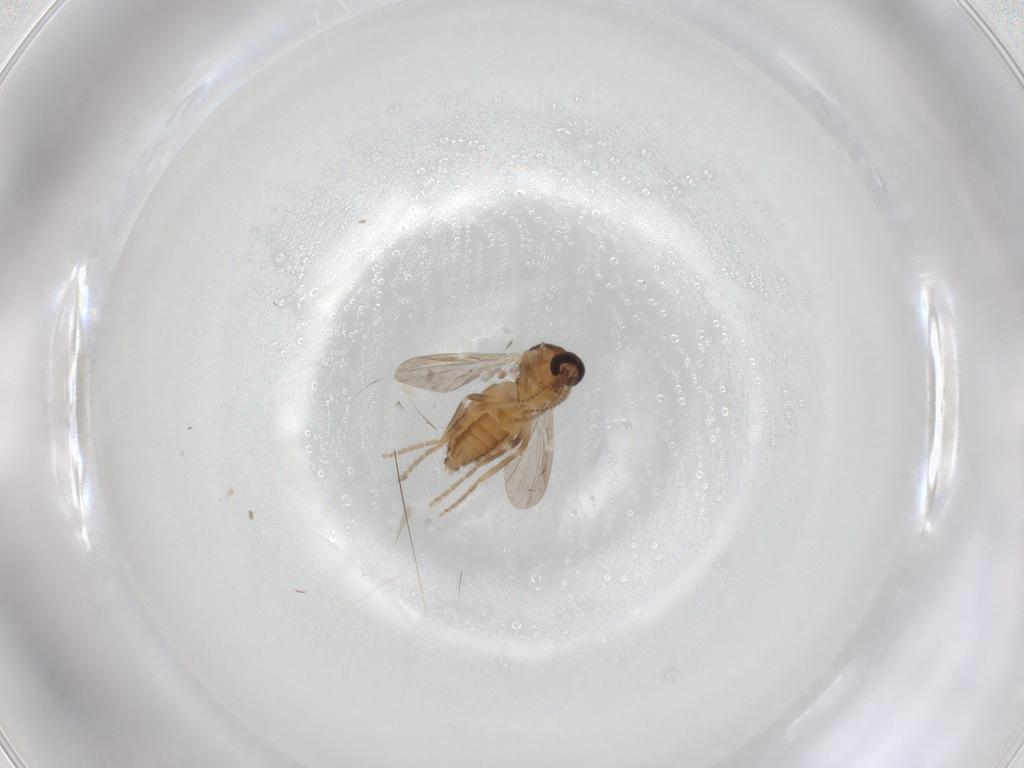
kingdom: Animalia
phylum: Arthropoda
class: Insecta
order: Diptera
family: Ceratopogonidae
